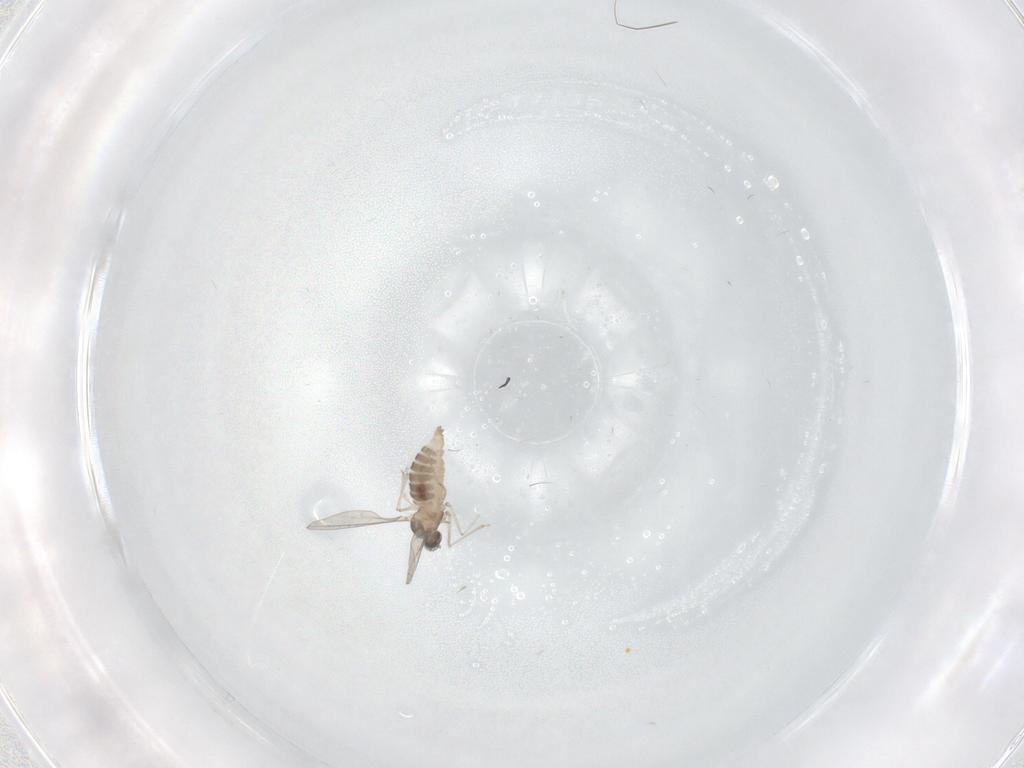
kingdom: Animalia
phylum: Arthropoda
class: Insecta
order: Diptera
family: Cecidomyiidae
